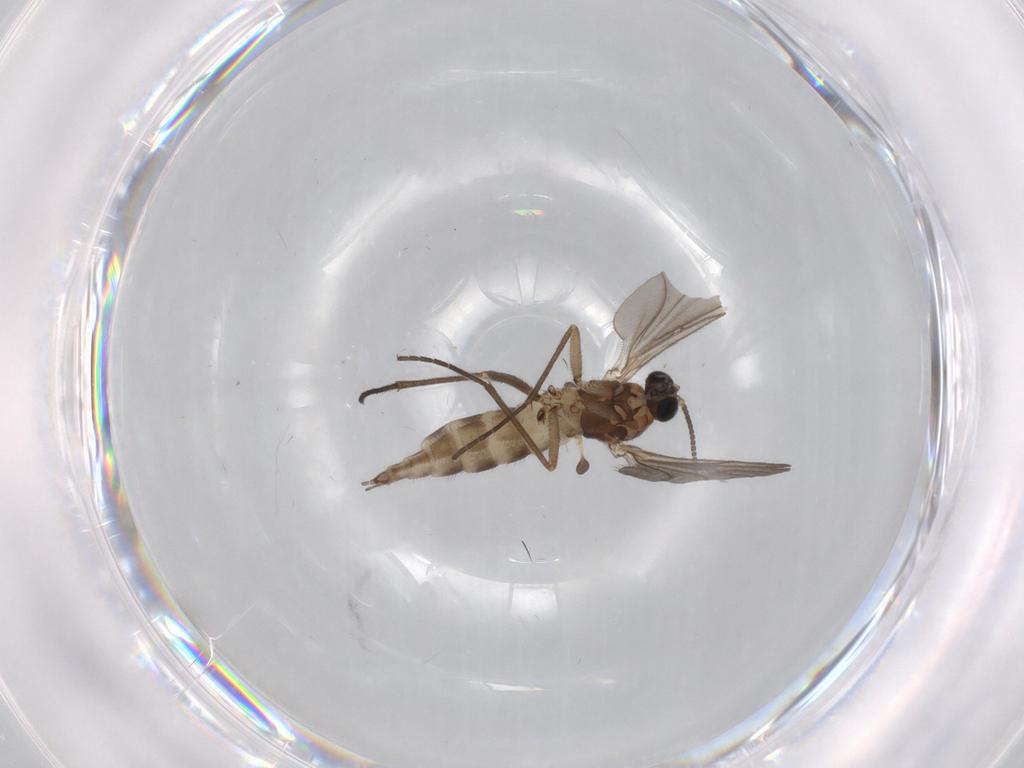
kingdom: Animalia
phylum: Arthropoda
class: Insecta
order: Diptera
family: Sciaridae
